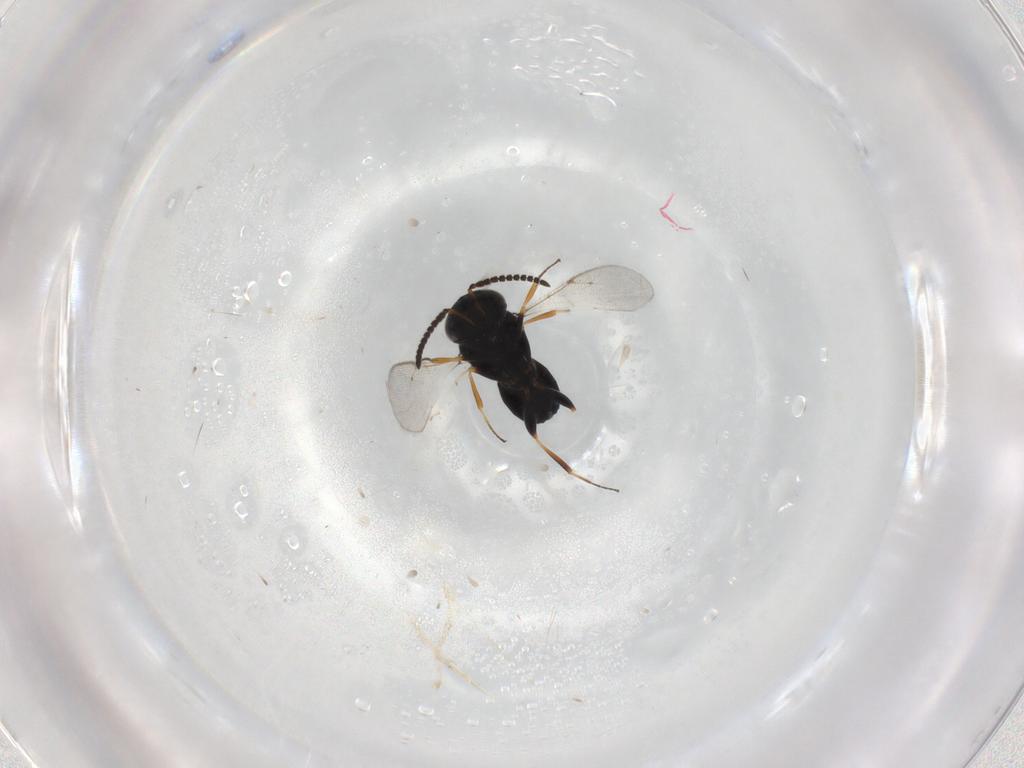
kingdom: Animalia
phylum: Arthropoda
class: Insecta
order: Coleoptera
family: Curculionidae
